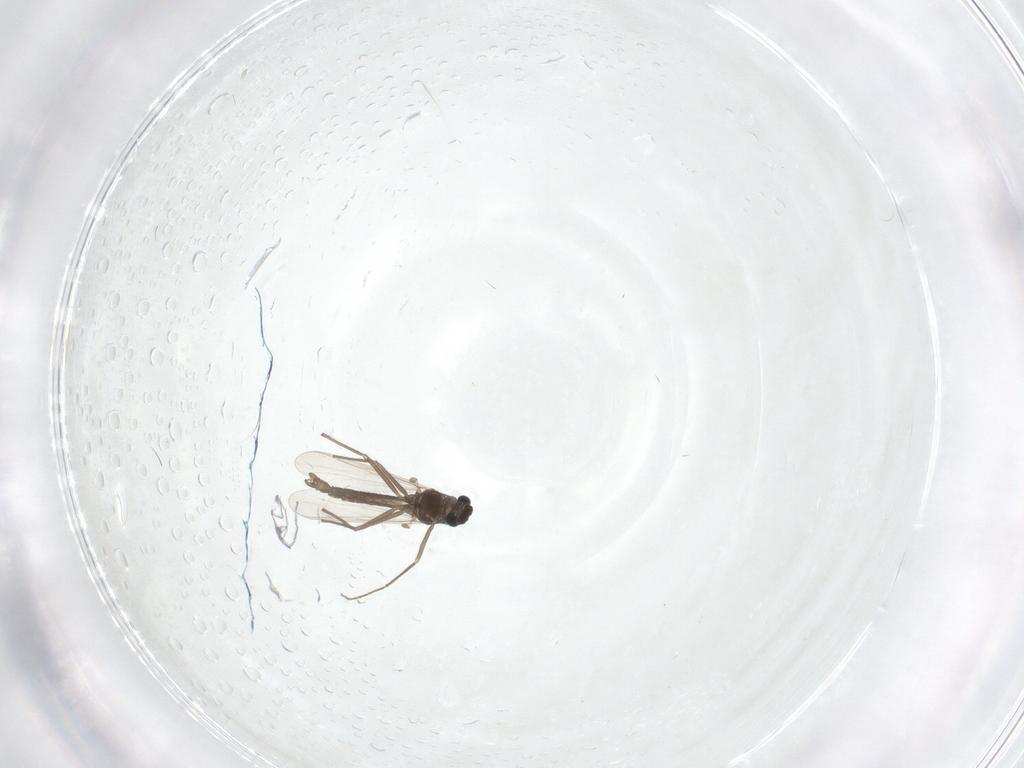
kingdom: Animalia
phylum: Arthropoda
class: Insecta
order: Diptera
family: Chironomidae
